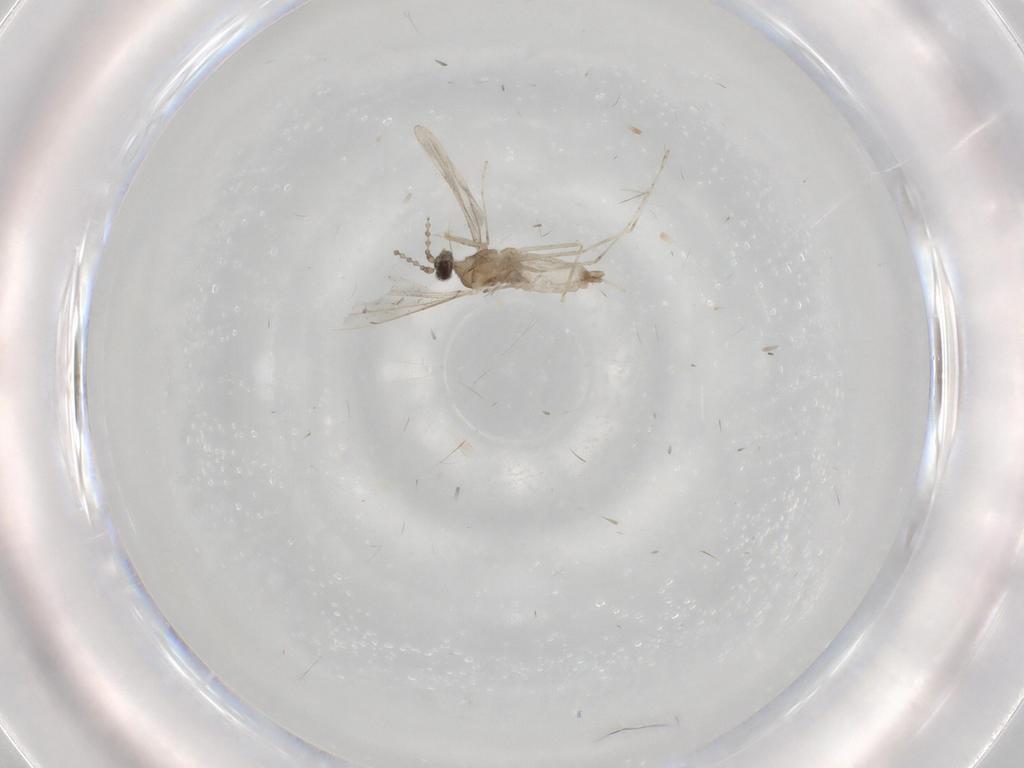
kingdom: Animalia
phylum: Arthropoda
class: Insecta
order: Diptera
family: Cecidomyiidae
